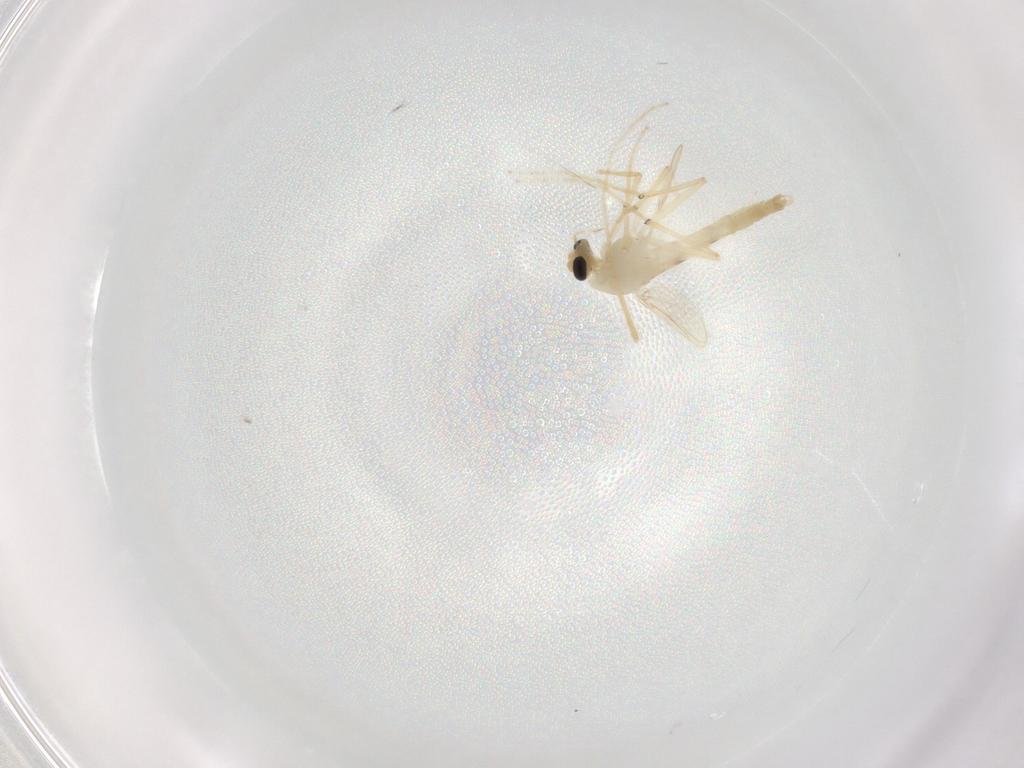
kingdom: Animalia
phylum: Arthropoda
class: Insecta
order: Diptera
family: Chironomidae
